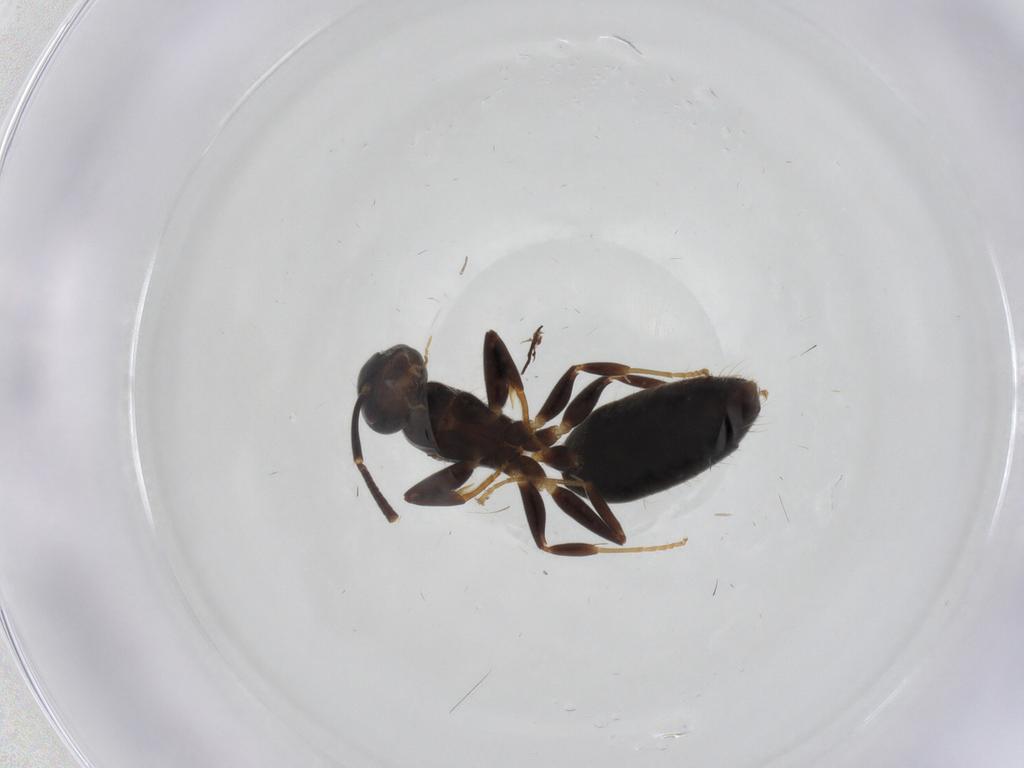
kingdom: Animalia
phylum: Arthropoda
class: Insecta
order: Hymenoptera
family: Formicidae
